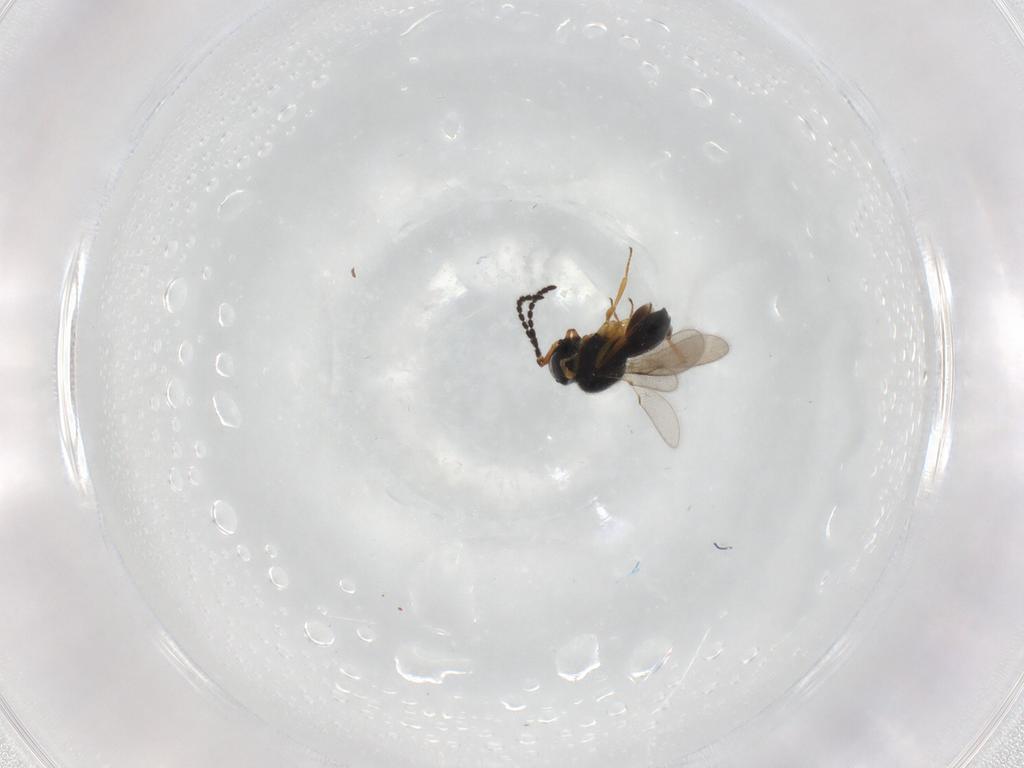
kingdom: Animalia
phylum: Arthropoda
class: Insecta
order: Hymenoptera
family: Scelionidae
